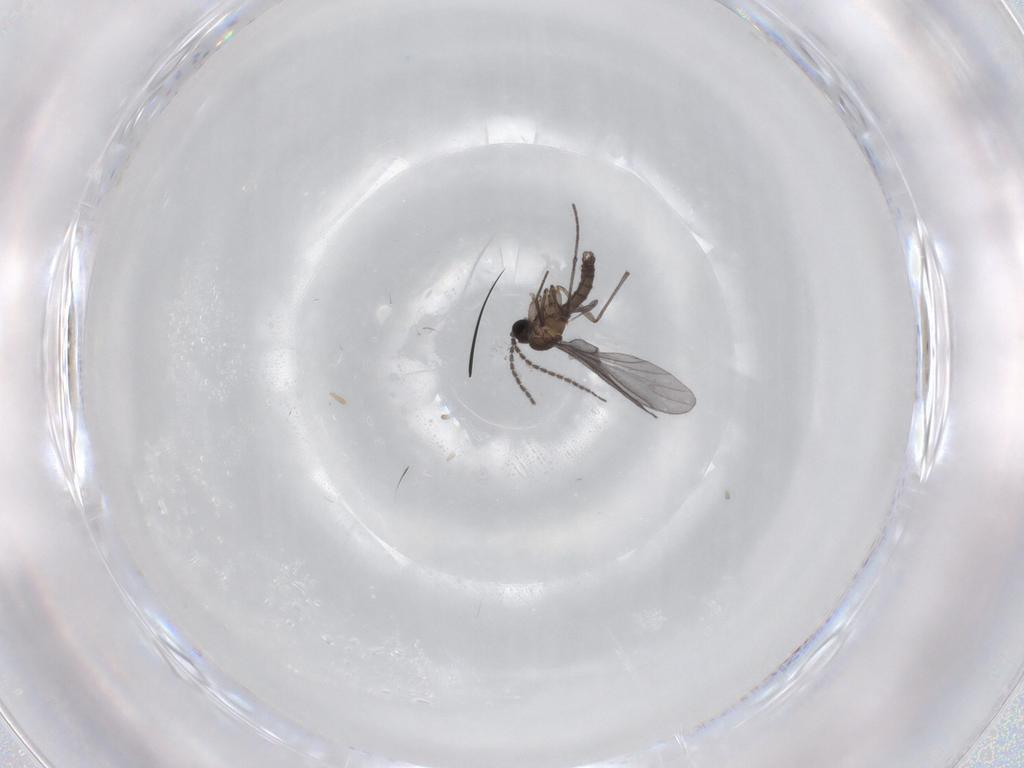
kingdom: Animalia
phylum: Arthropoda
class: Insecta
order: Diptera
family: Sciaridae
